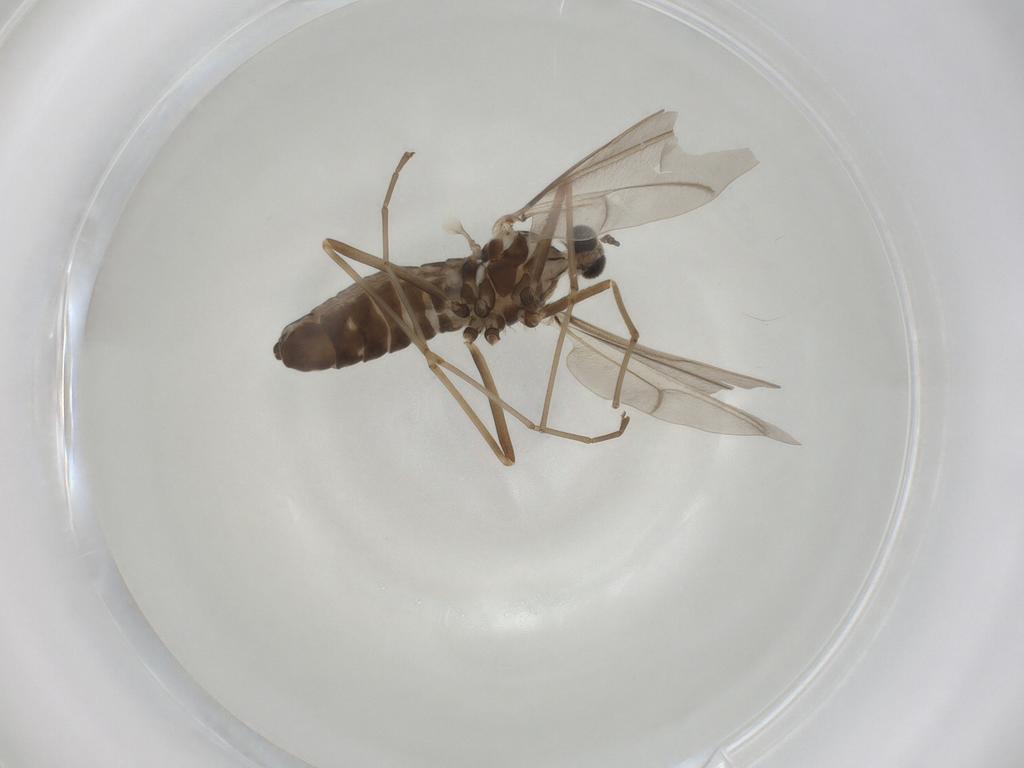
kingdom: Animalia
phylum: Arthropoda
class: Insecta
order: Diptera
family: Cecidomyiidae
